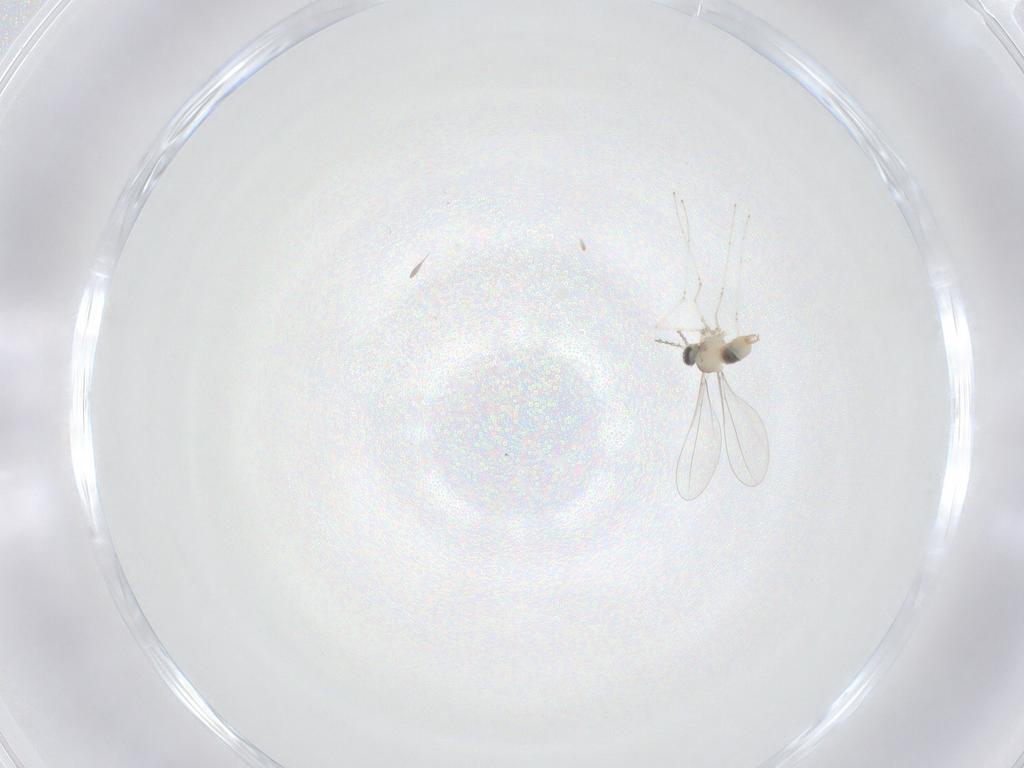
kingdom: Animalia
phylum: Arthropoda
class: Insecta
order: Diptera
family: Cecidomyiidae
